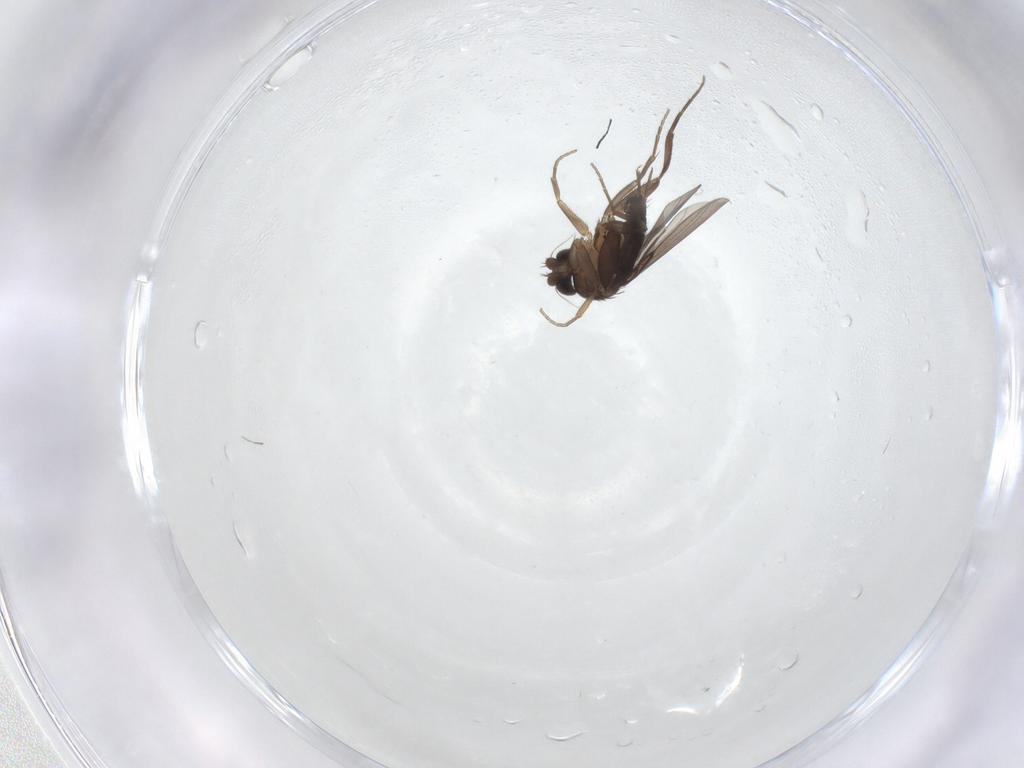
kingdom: Animalia
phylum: Arthropoda
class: Insecta
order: Diptera
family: Phoridae
